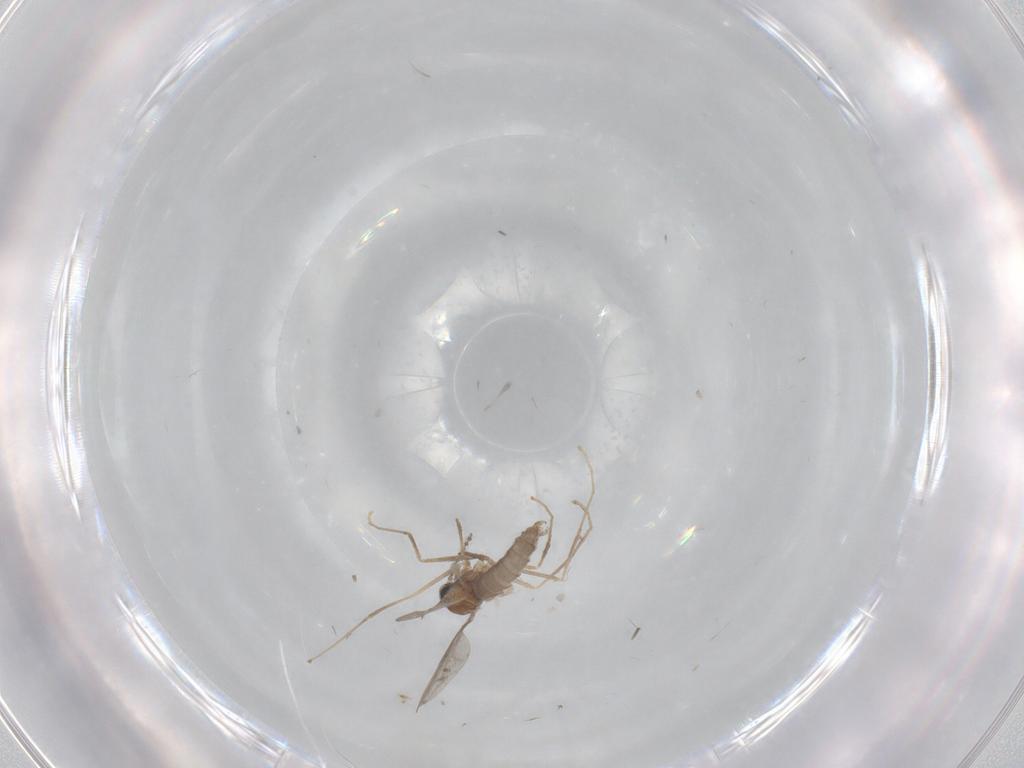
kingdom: Animalia
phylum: Arthropoda
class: Insecta
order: Diptera
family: Cecidomyiidae
